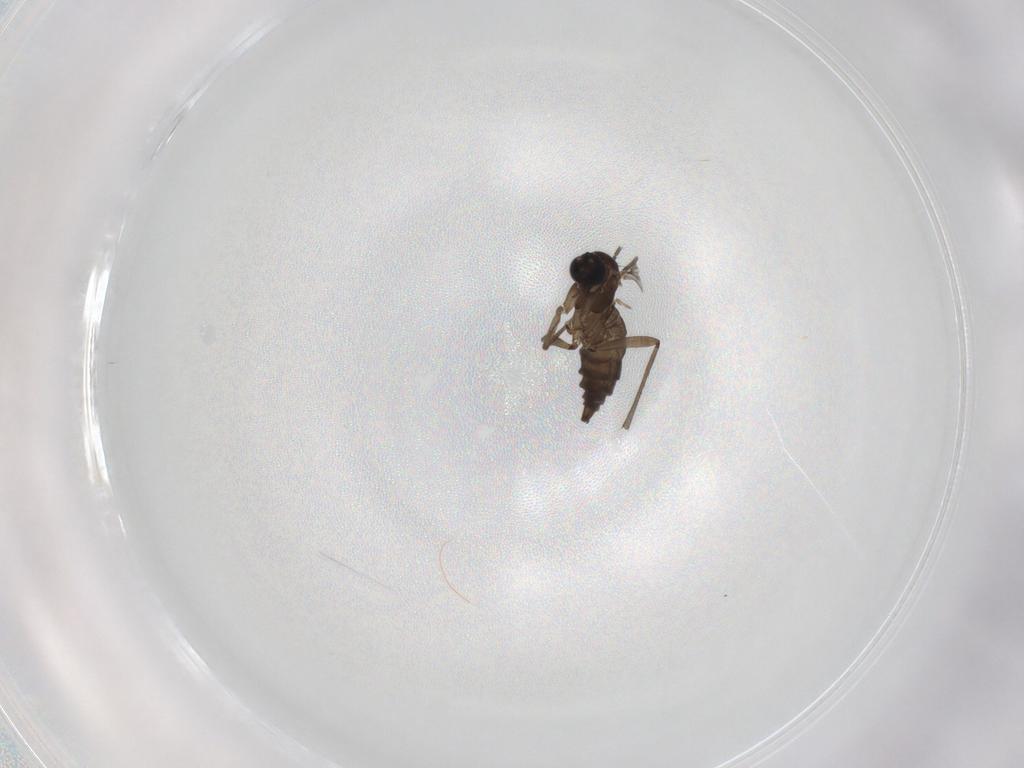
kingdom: Animalia
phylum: Arthropoda
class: Insecta
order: Diptera
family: Sciaridae
